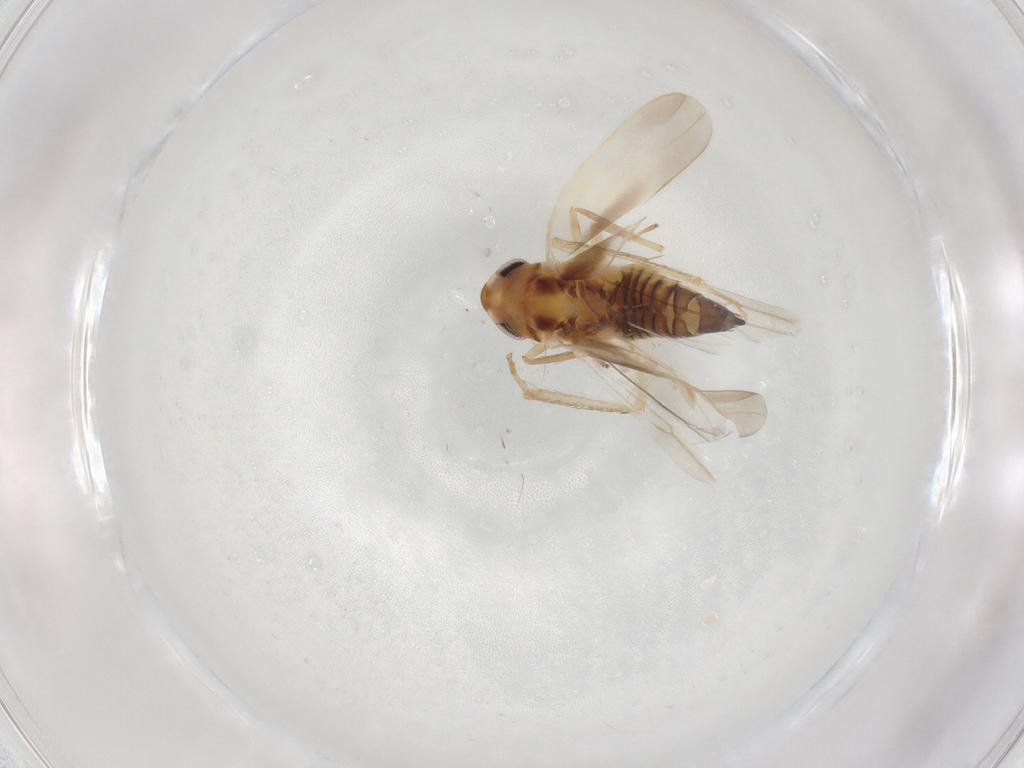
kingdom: Animalia
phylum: Arthropoda
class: Insecta
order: Hemiptera
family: Cicadellidae
